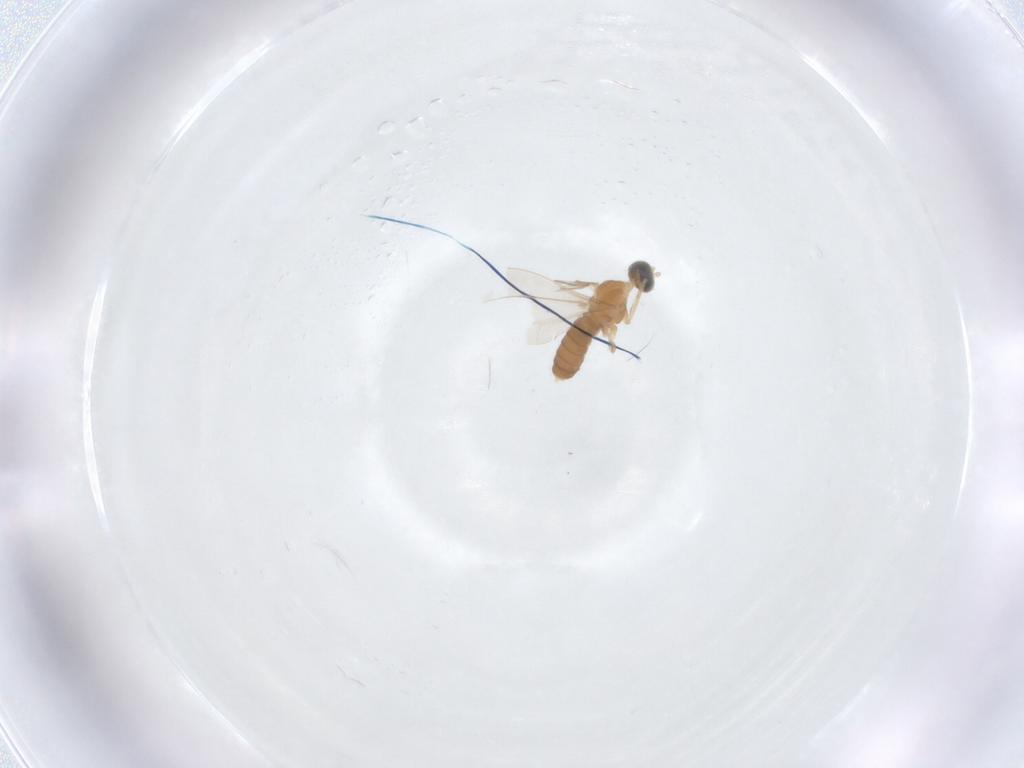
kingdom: Animalia
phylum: Arthropoda
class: Insecta
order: Diptera
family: Cecidomyiidae
